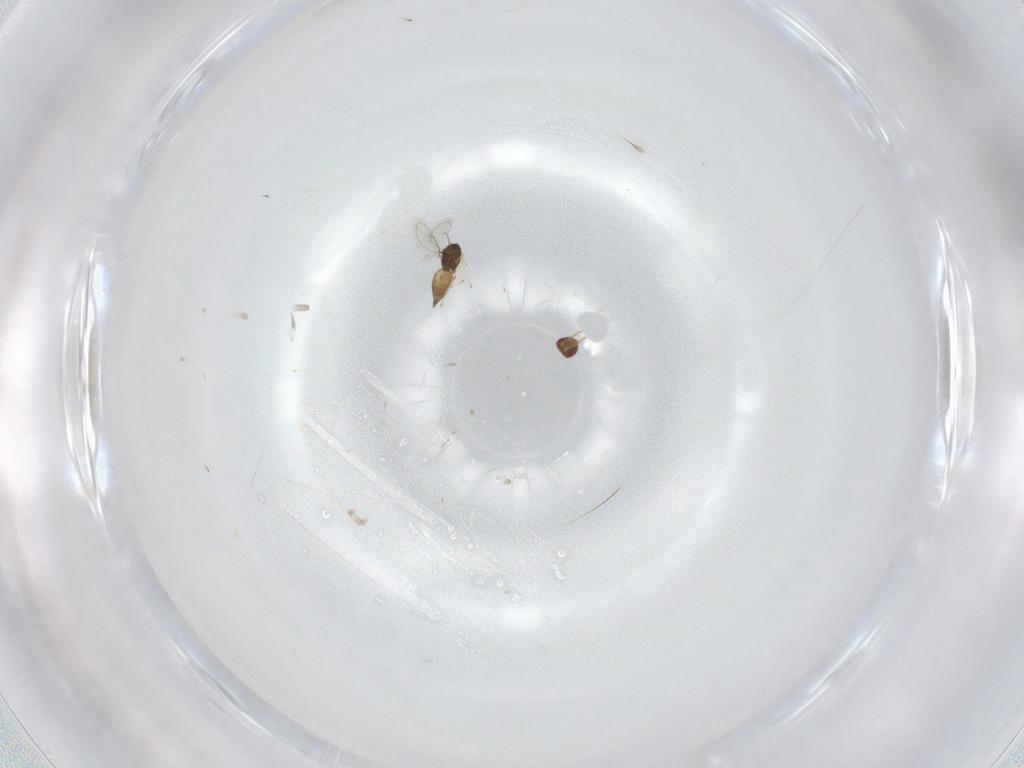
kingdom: Animalia
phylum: Arthropoda
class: Insecta
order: Hymenoptera
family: Eulophidae
